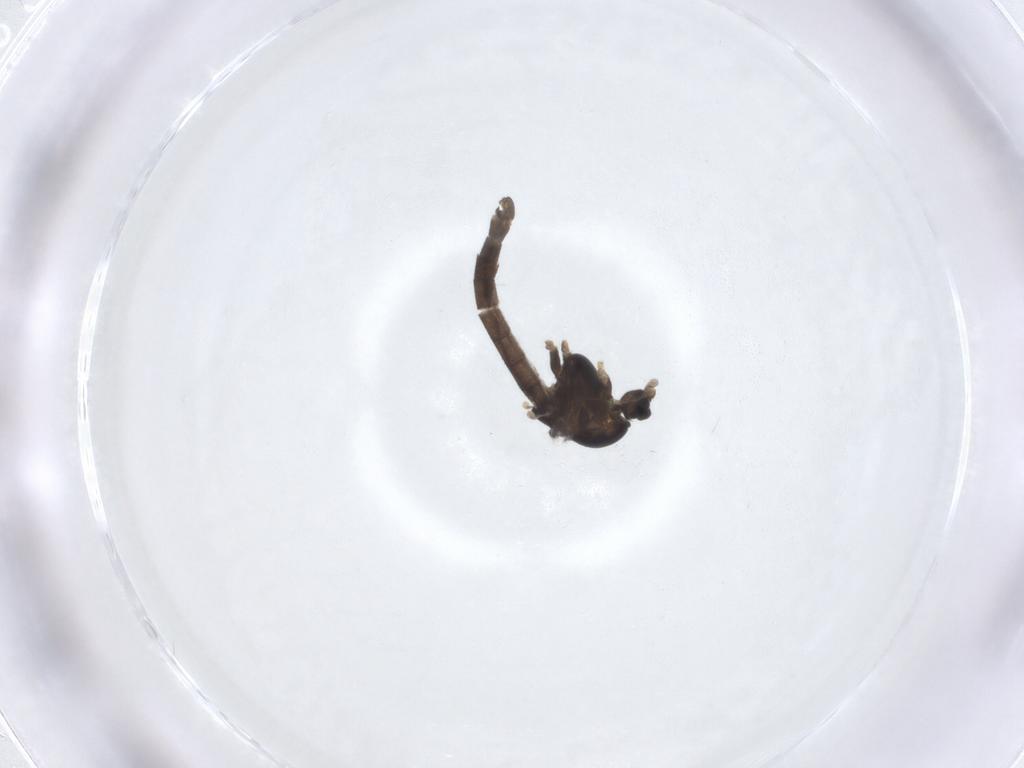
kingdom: Animalia
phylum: Arthropoda
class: Insecta
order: Diptera
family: Chironomidae
